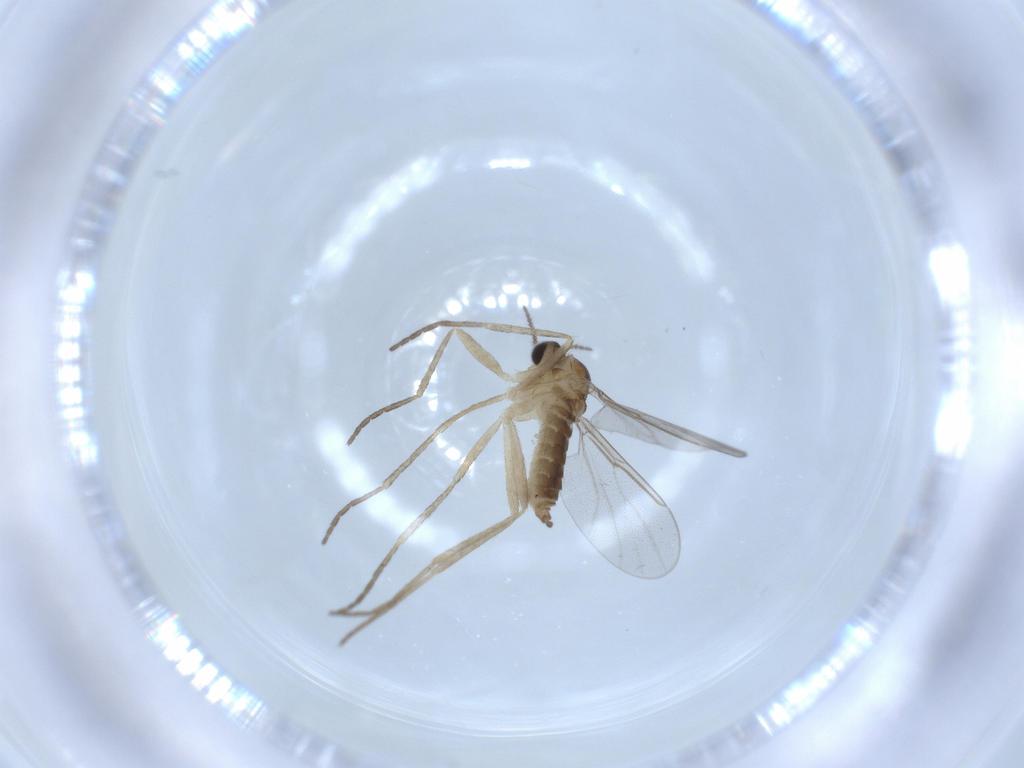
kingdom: Animalia
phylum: Arthropoda
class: Insecta
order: Diptera
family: Cecidomyiidae
